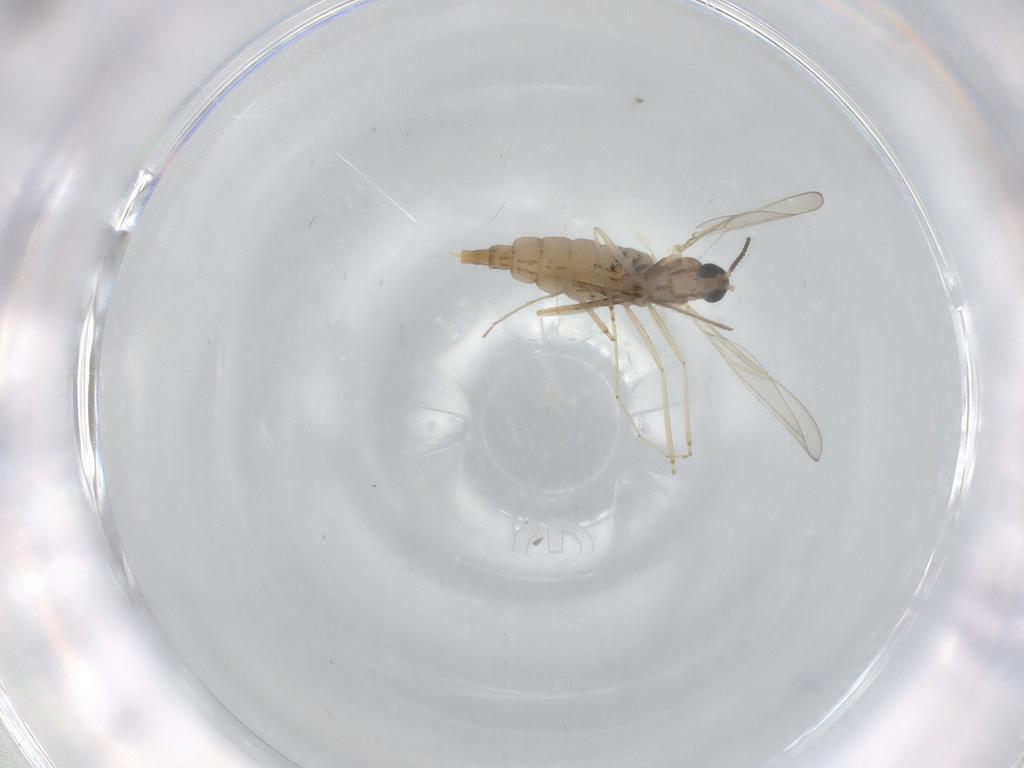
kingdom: Animalia
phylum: Arthropoda
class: Insecta
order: Diptera
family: Cecidomyiidae
